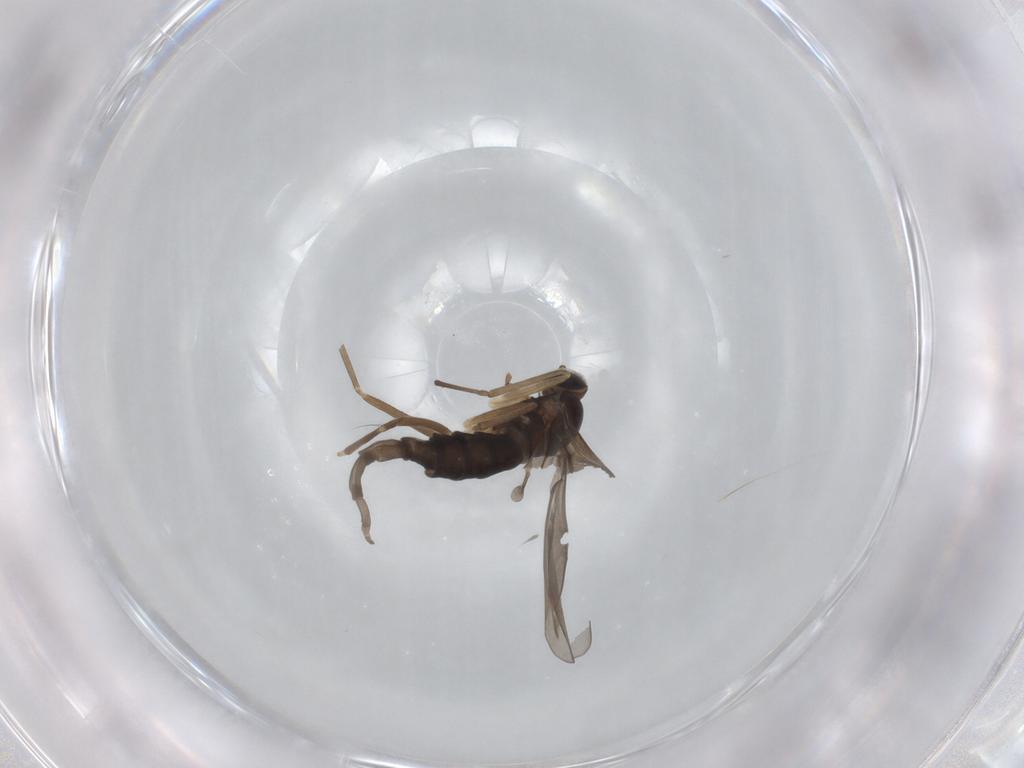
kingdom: Animalia
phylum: Arthropoda
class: Insecta
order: Diptera
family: Cecidomyiidae
